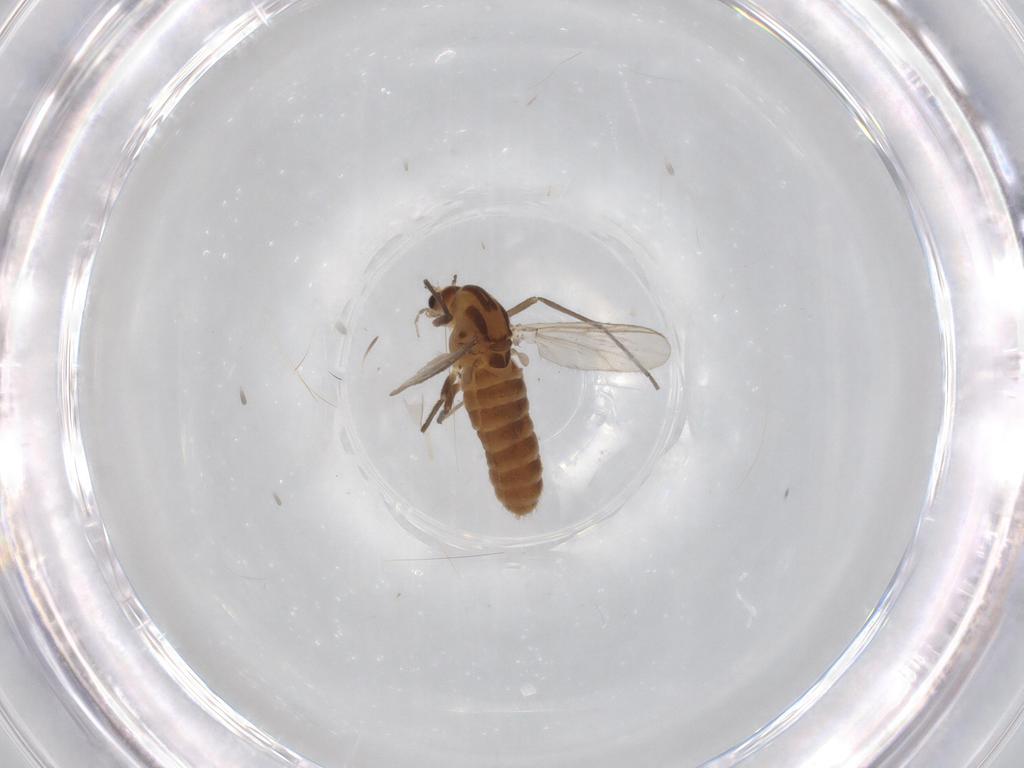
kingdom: Animalia
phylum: Arthropoda
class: Insecta
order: Diptera
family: Chironomidae
